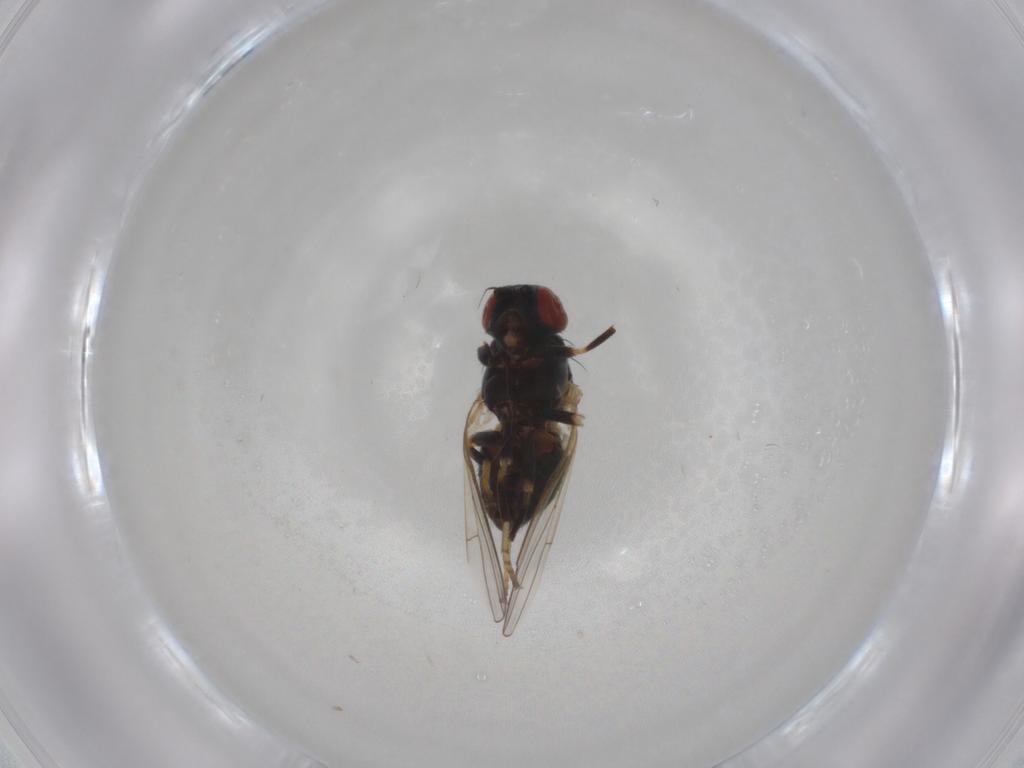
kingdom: Animalia
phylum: Arthropoda
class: Insecta
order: Diptera
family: Chamaemyiidae
